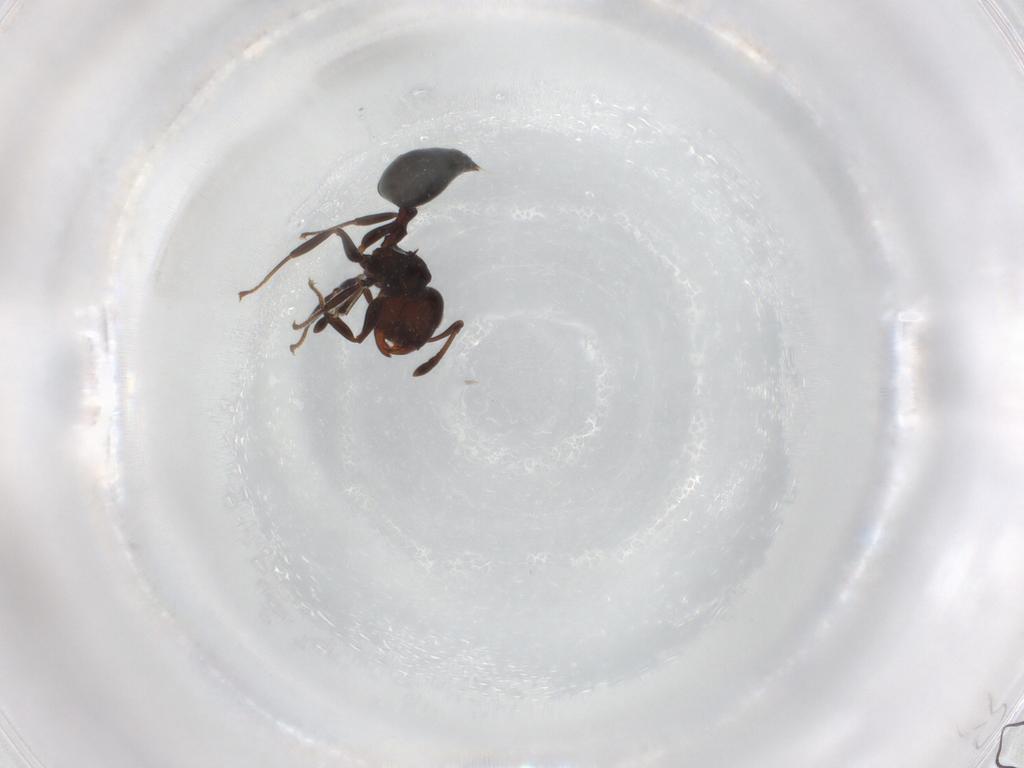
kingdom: Animalia
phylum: Arthropoda
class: Insecta
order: Hymenoptera
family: Formicidae
